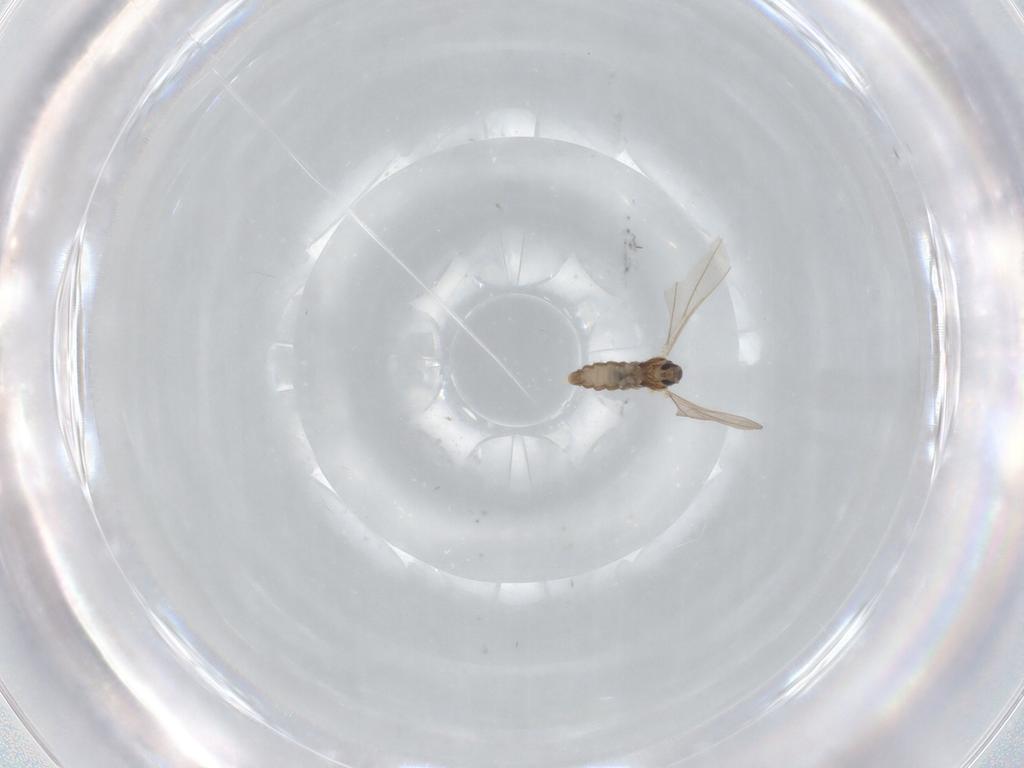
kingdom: Animalia
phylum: Arthropoda
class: Insecta
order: Diptera
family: Cecidomyiidae
